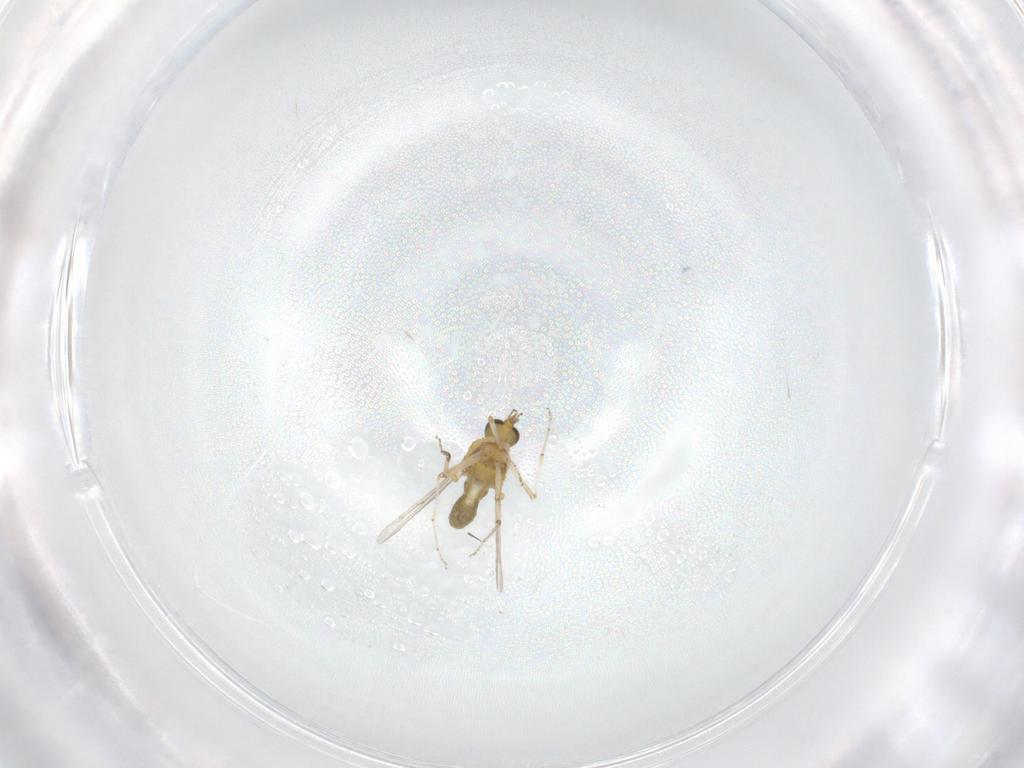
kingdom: Animalia
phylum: Arthropoda
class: Insecta
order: Diptera
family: Chironomidae
